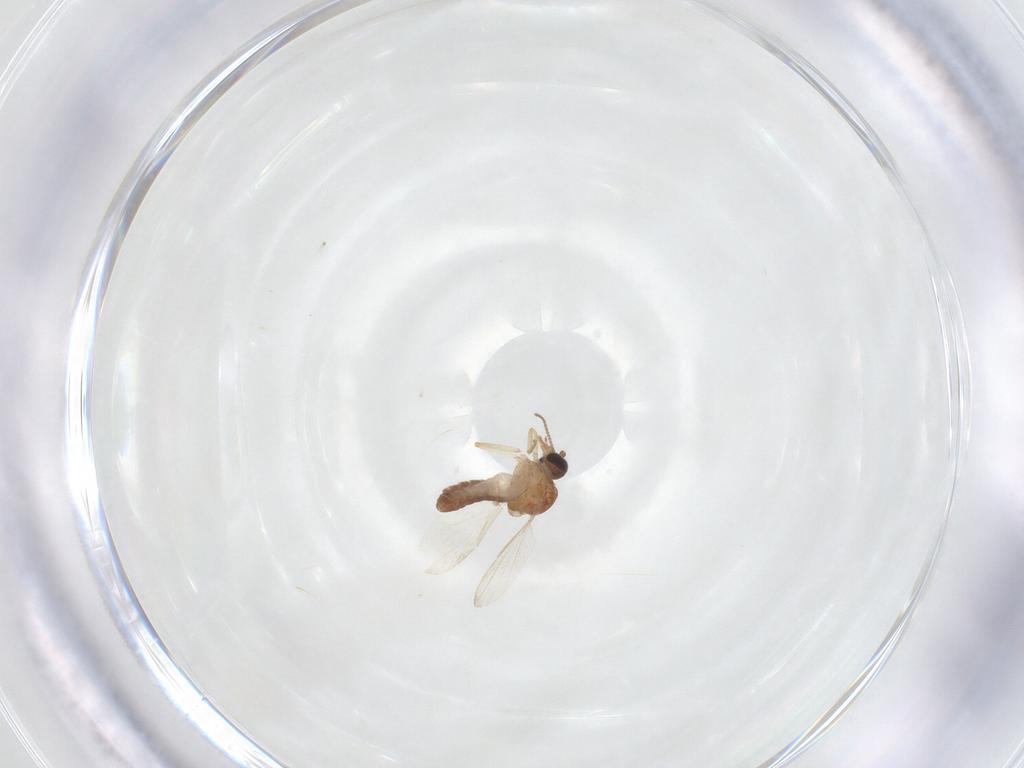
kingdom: Animalia
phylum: Arthropoda
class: Insecta
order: Diptera
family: Ceratopogonidae
